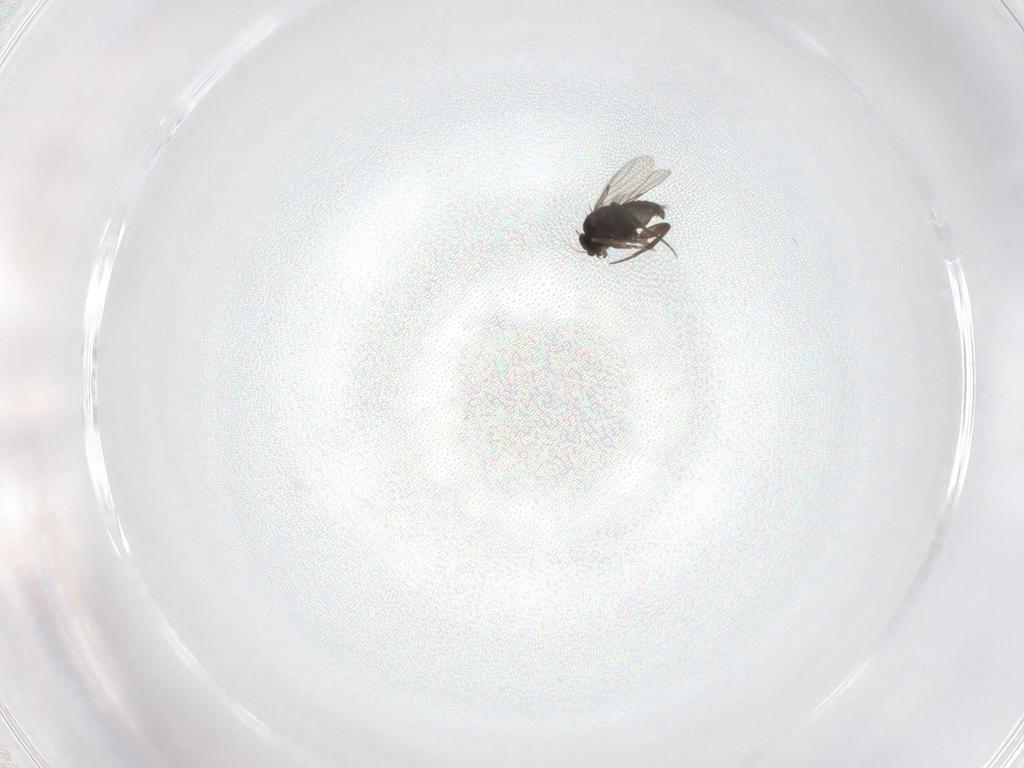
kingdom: Animalia
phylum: Arthropoda
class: Insecta
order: Diptera
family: Phoridae
